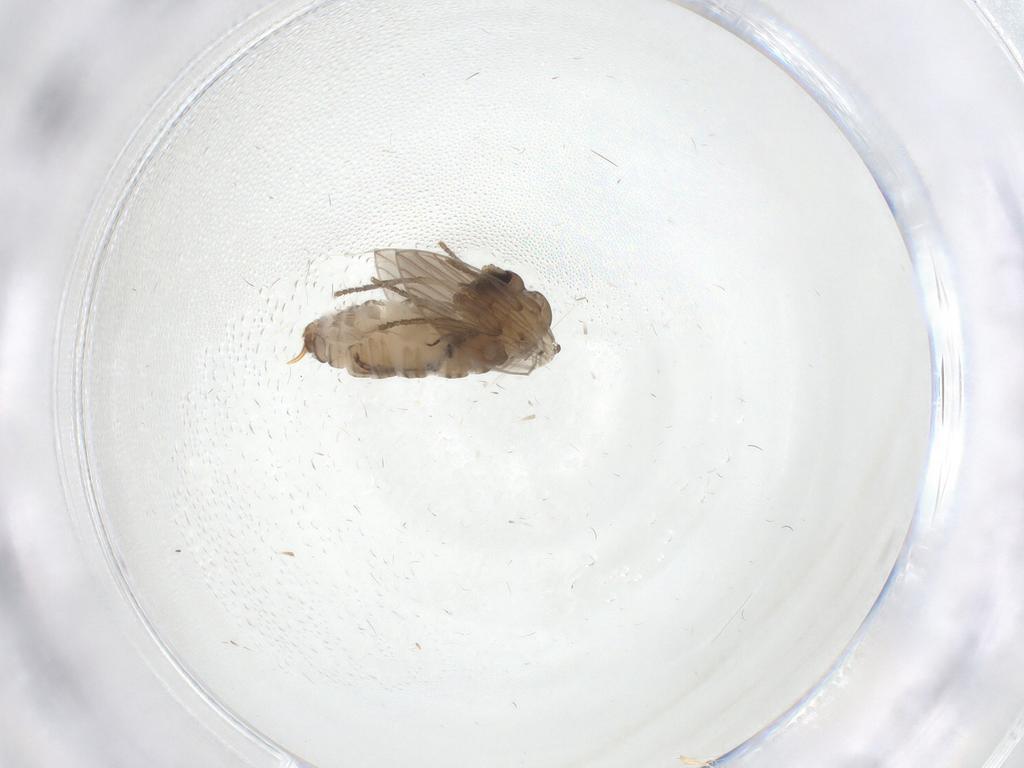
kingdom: Animalia
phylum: Arthropoda
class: Insecta
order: Diptera
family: Psychodidae
